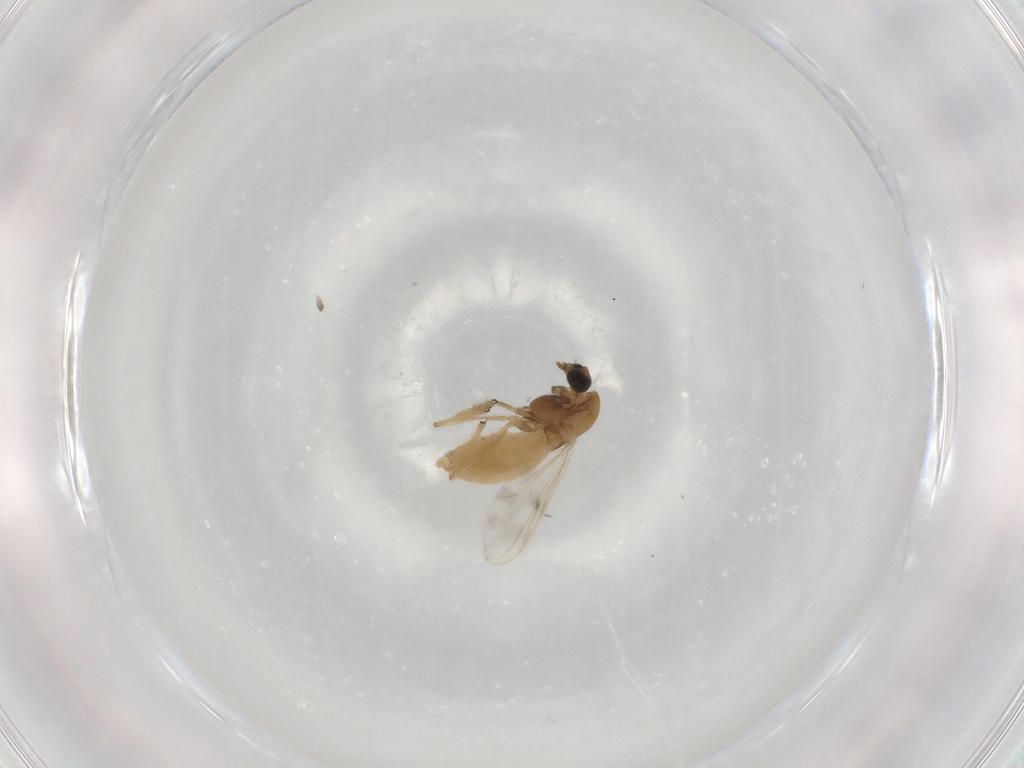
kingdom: Animalia
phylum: Arthropoda
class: Insecta
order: Diptera
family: Chironomidae
